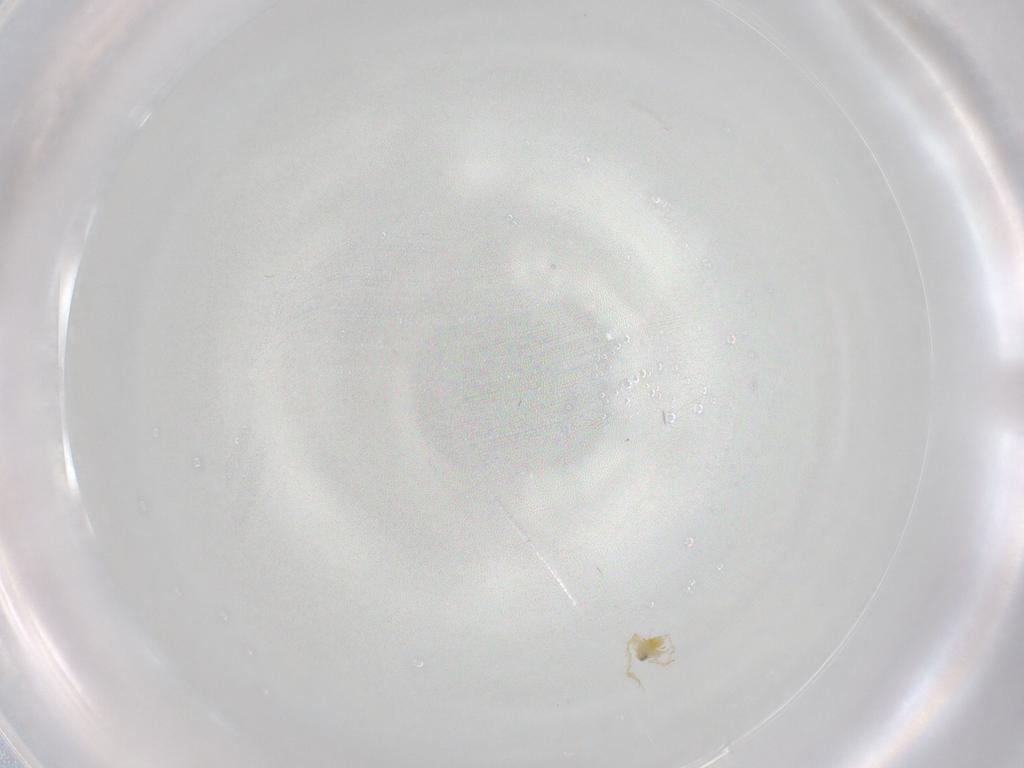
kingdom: Animalia
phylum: Arthropoda
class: Insecta
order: Hemiptera
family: Aleyrodidae
